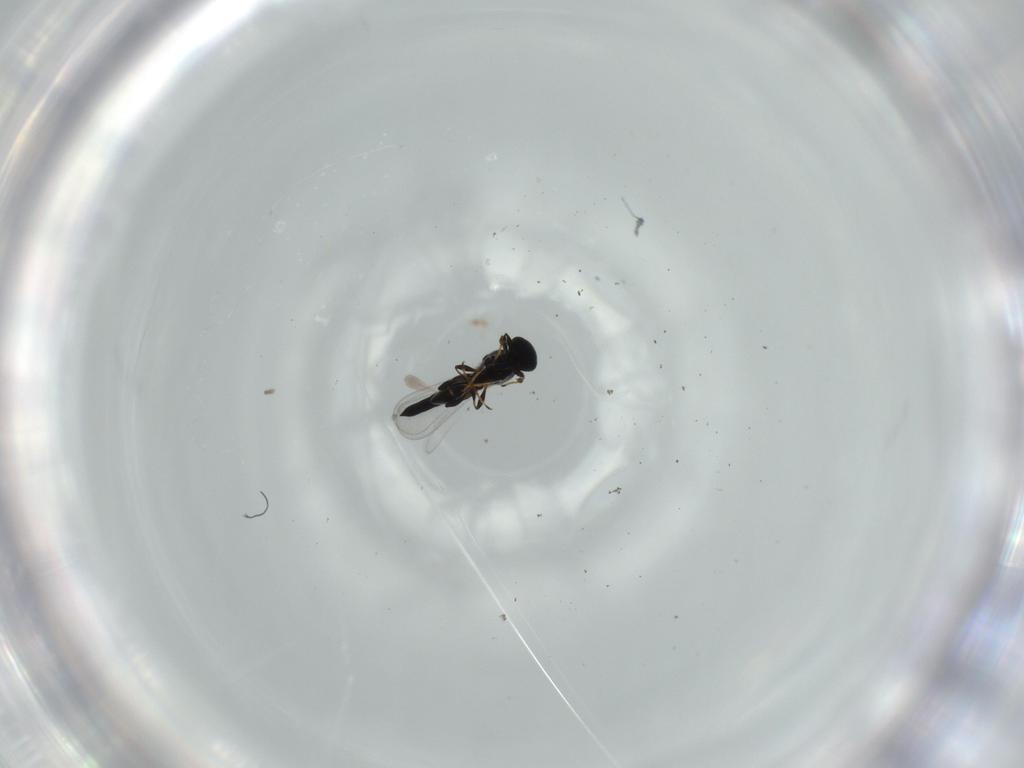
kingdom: Animalia
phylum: Arthropoda
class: Insecta
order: Hymenoptera
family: Platygastridae
